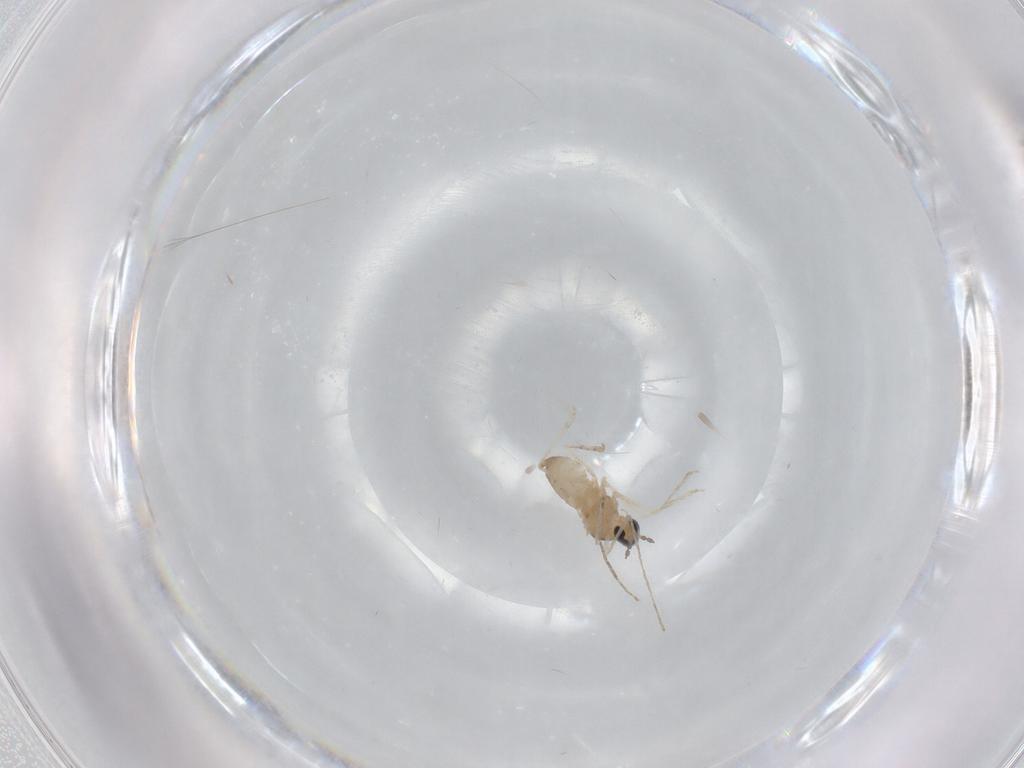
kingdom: Animalia
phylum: Arthropoda
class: Insecta
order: Diptera
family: Cecidomyiidae
